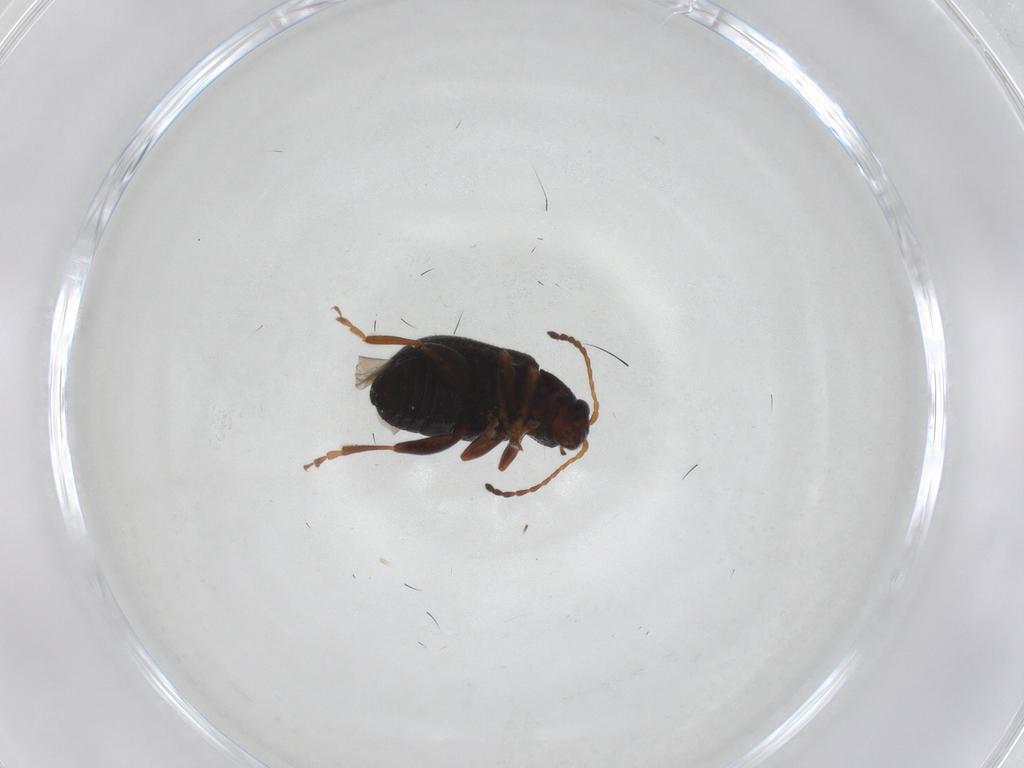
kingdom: Animalia
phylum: Arthropoda
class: Insecta
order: Coleoptera
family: Chrysomelidae
